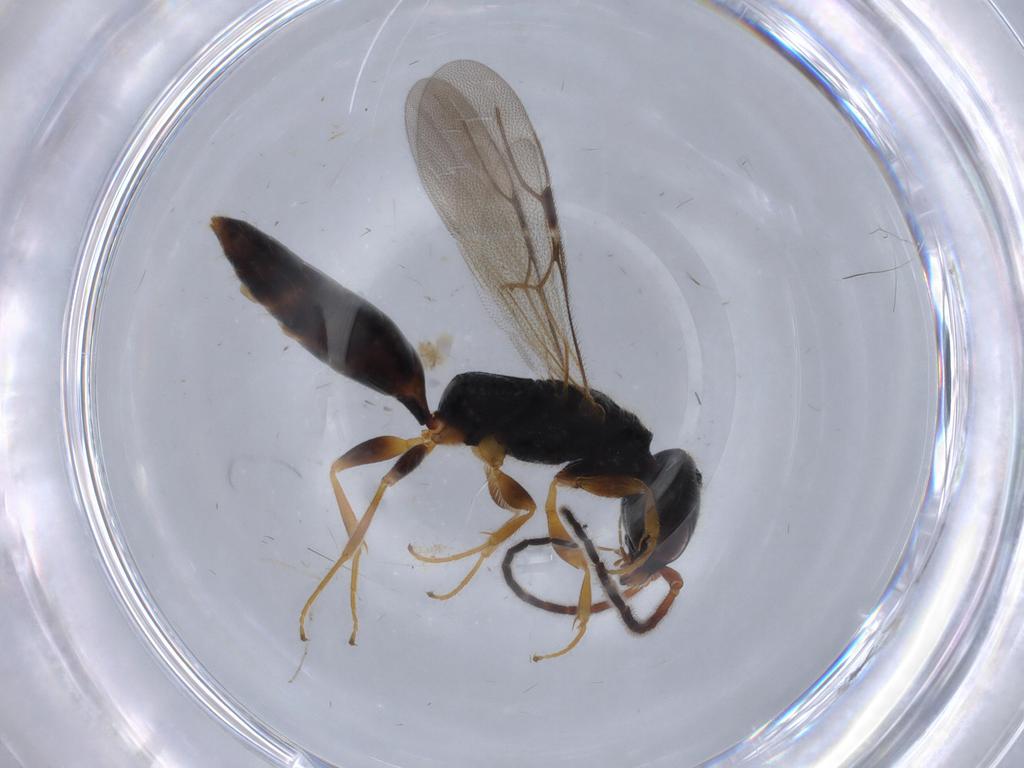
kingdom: Animalia
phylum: Arthropoda
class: Insecta
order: Hymenoptera
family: Bethylidae
